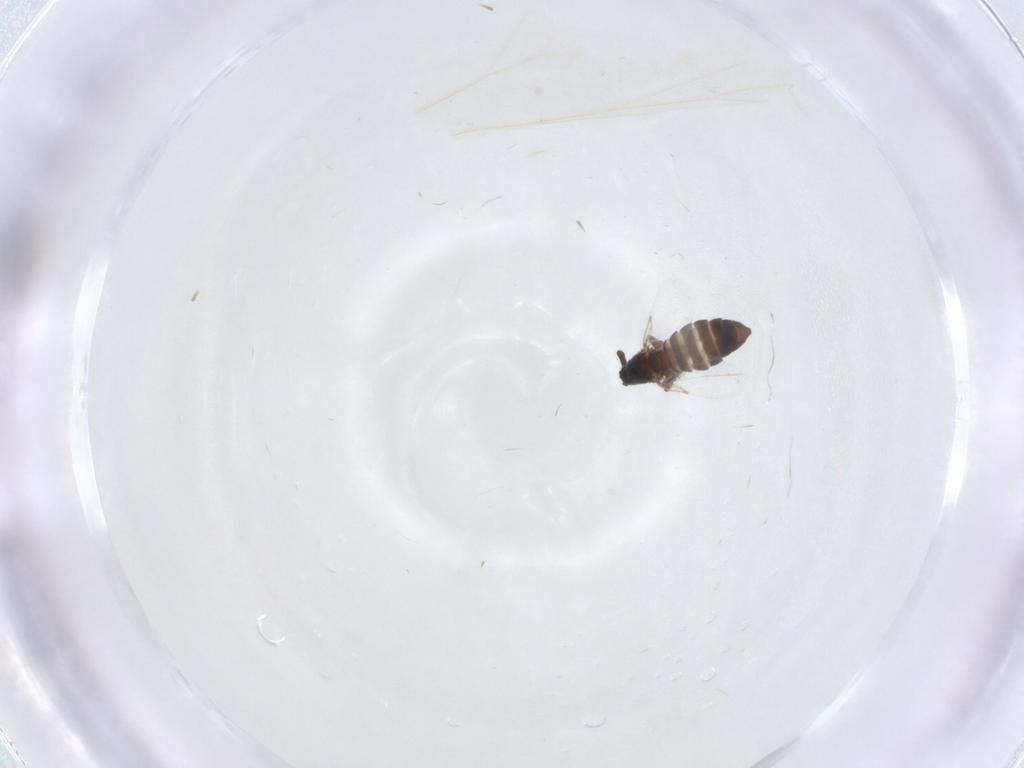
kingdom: Animalia
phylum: Arthropoda
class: Insecta
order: Diptera
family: Scatopsidae
